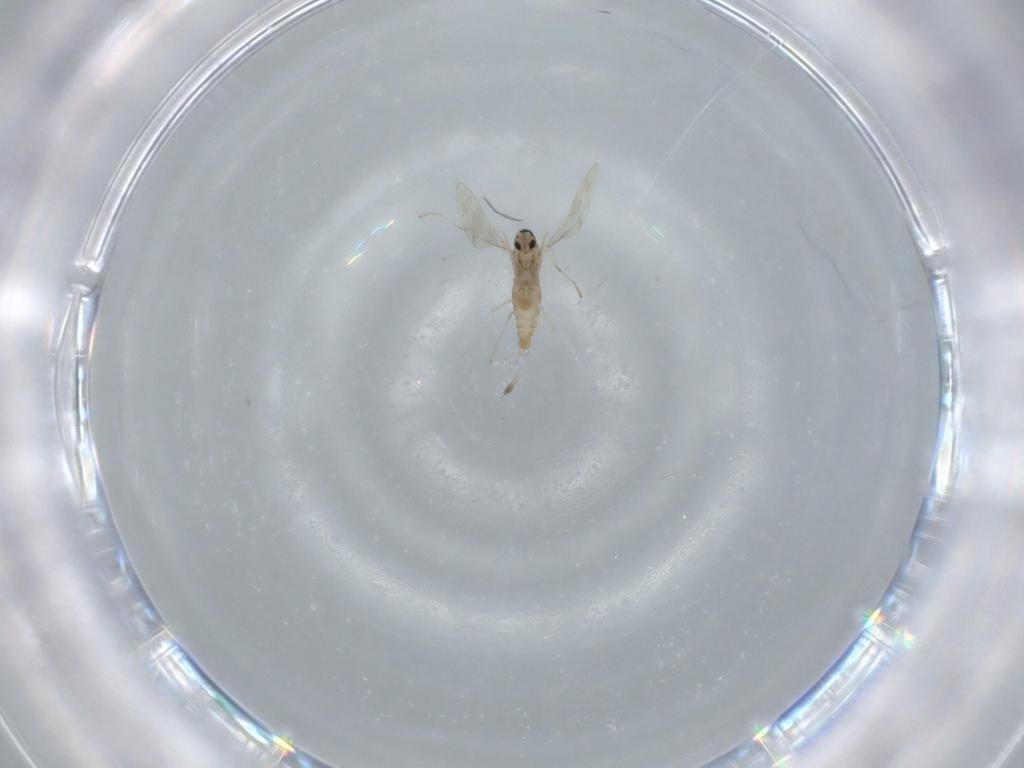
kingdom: Animalia
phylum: Arthropoda
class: Insecta
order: Diptera
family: Cecidomyiidae
